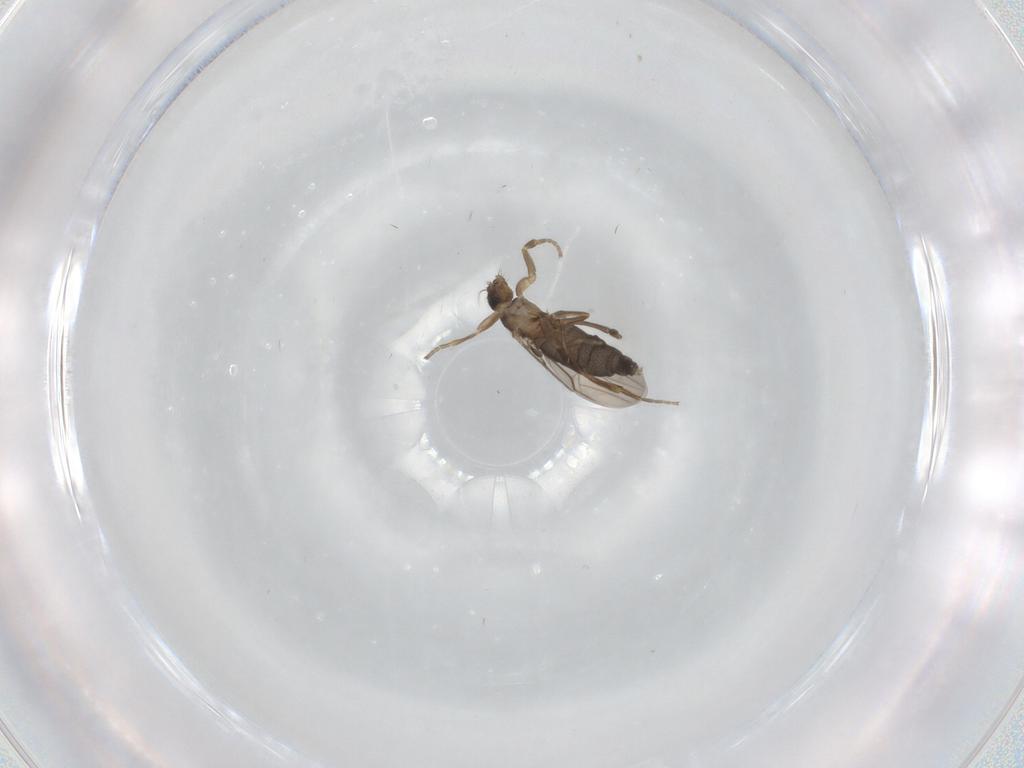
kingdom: Animalia
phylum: Arthropoda
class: Insecta
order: Diptera
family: Phoridae
